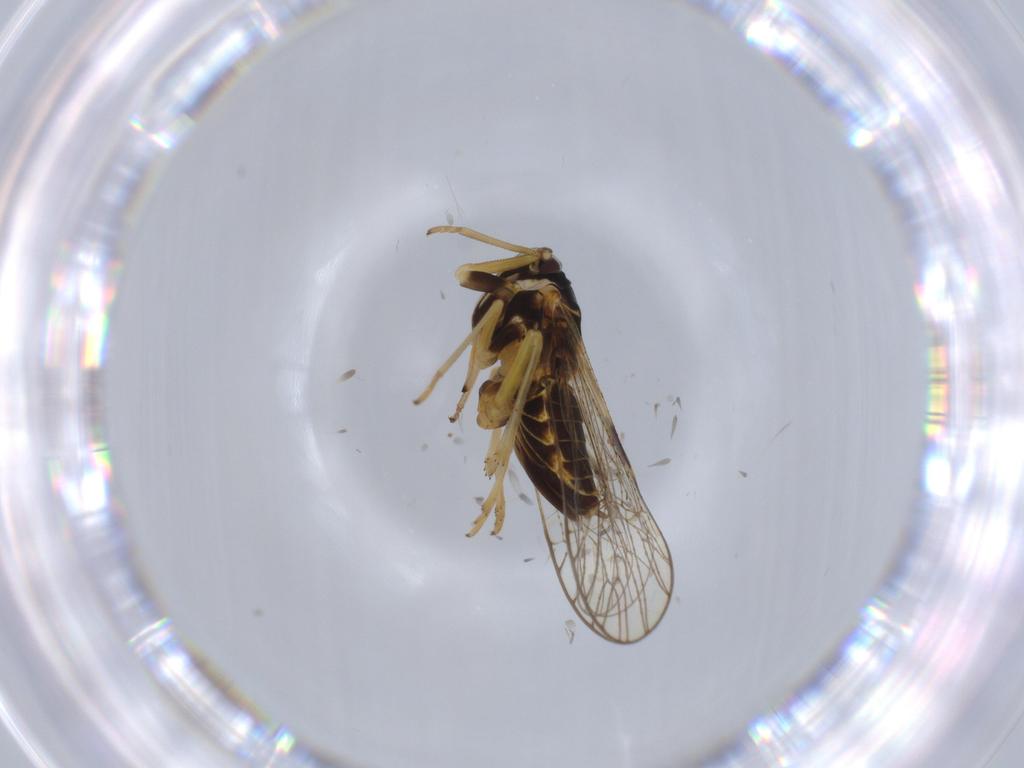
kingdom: Animalia
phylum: Arthropoda
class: Insecta
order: Hemiptera
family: Cicadellidae
